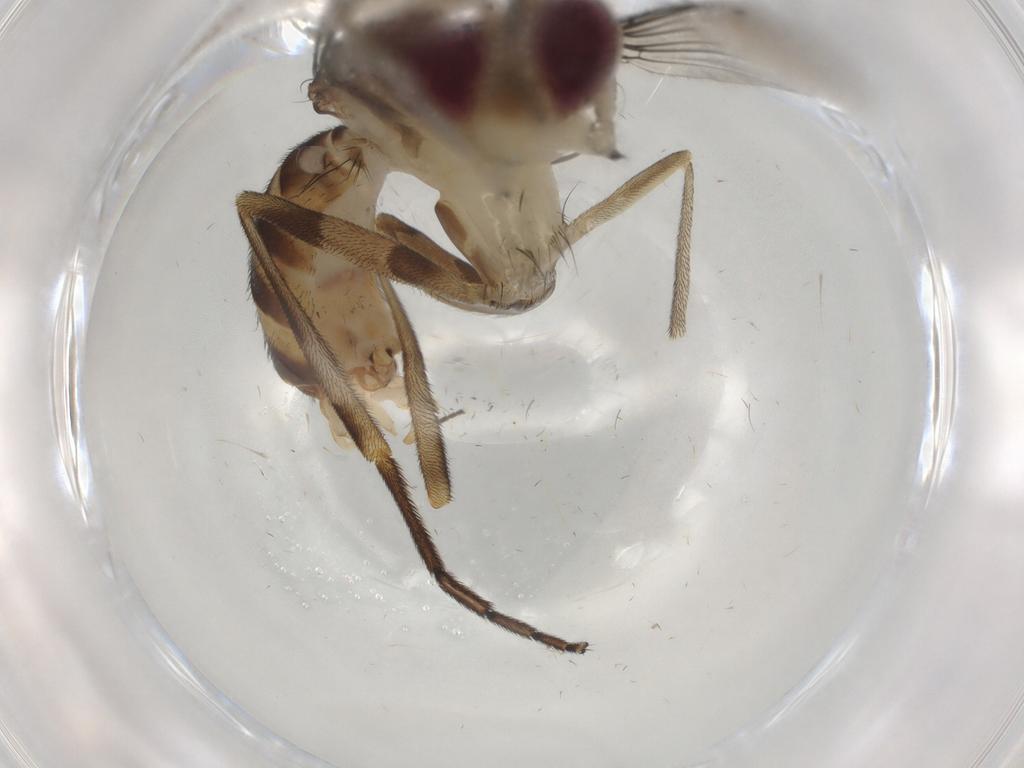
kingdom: Animalia
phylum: Arthropoda
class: Insecta
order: Diptera
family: Milichiidae
